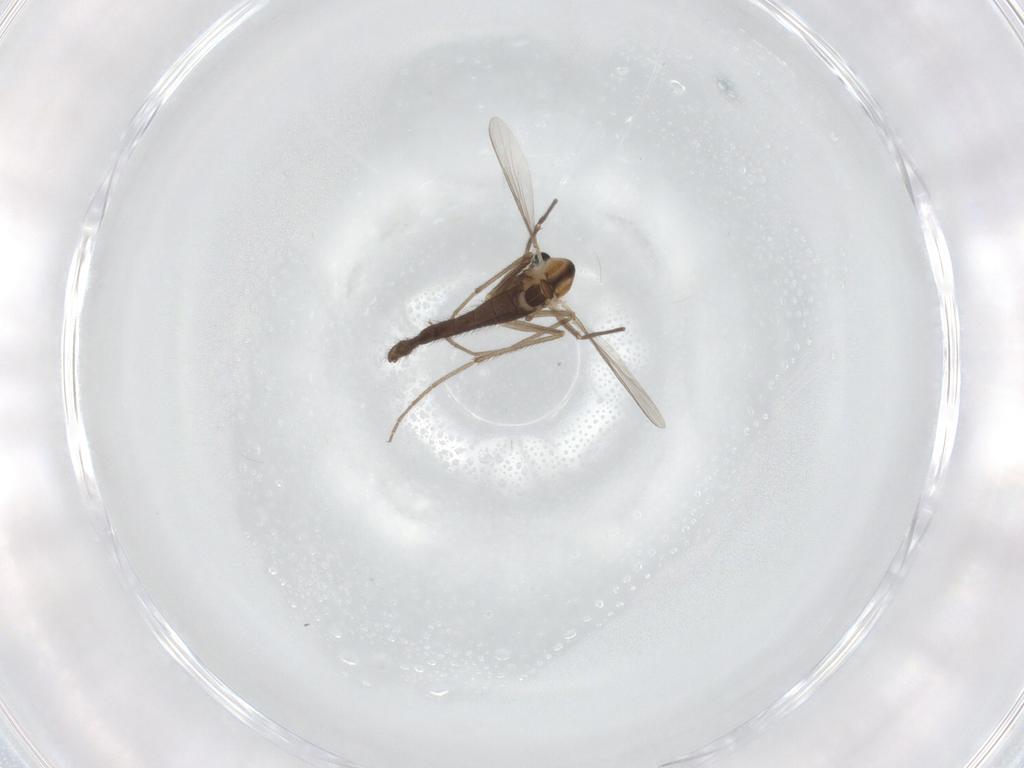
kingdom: Animalia
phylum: Arthropoda
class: Insecta
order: Diptera
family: Chironomidae
